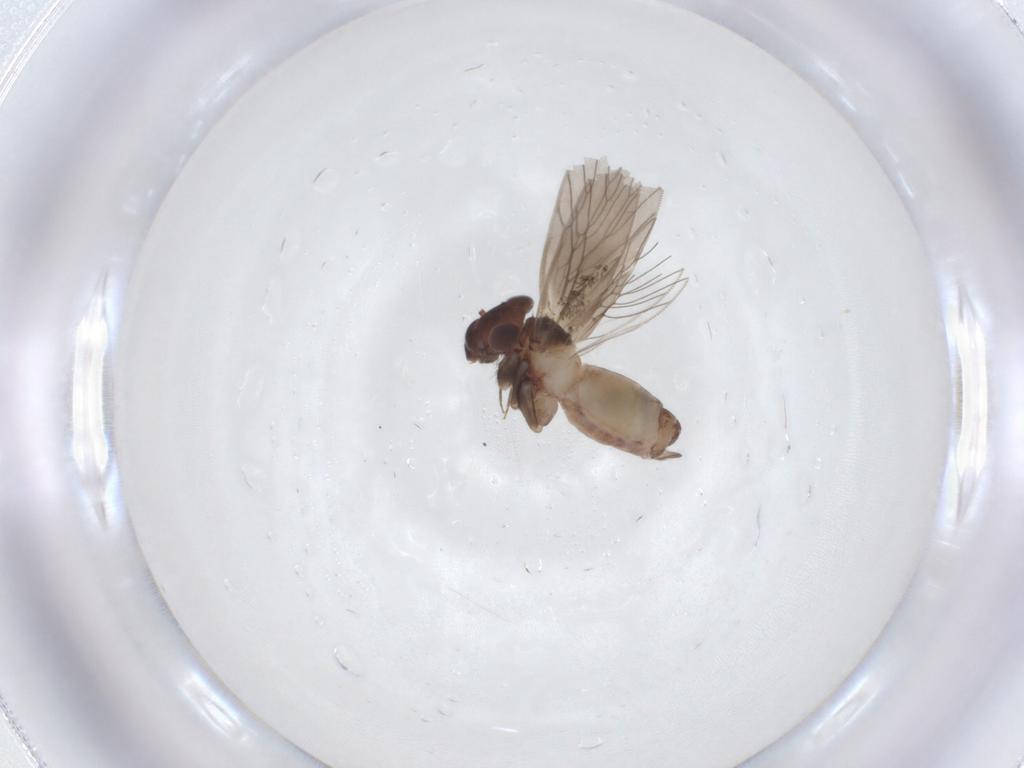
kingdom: Animalia
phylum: Arthropoda
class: Insecta
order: Psocodea
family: Lepidopsocidae
